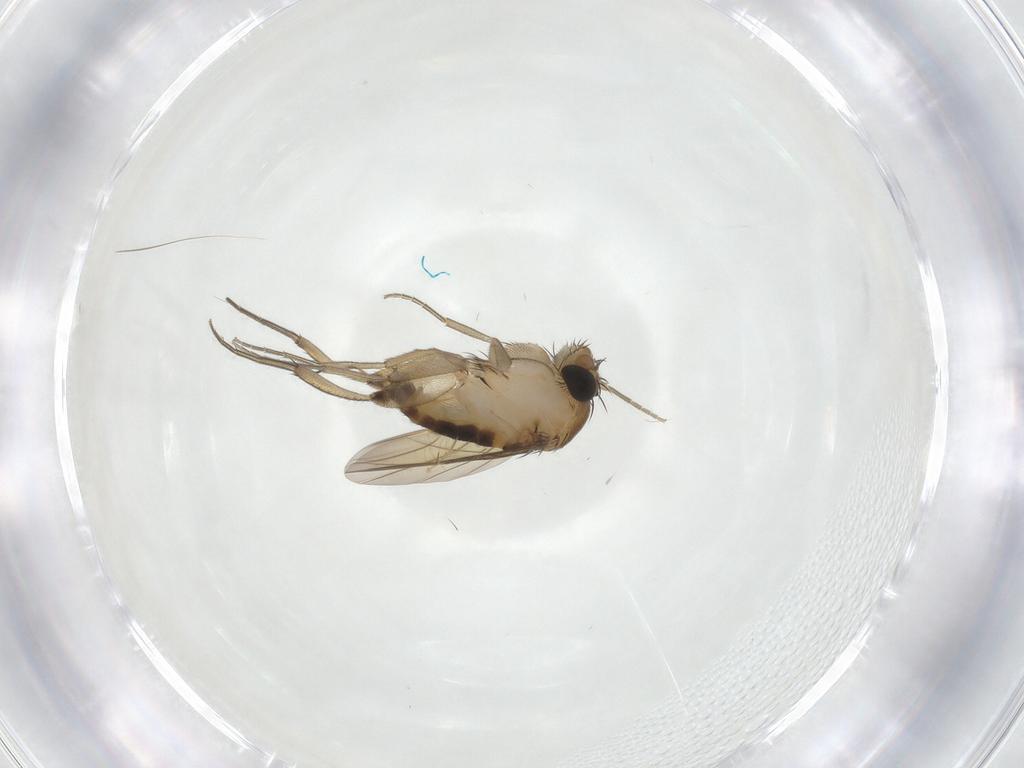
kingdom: Animalia
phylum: Arthropoda
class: Insecta
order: Diptera
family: Phoridae
